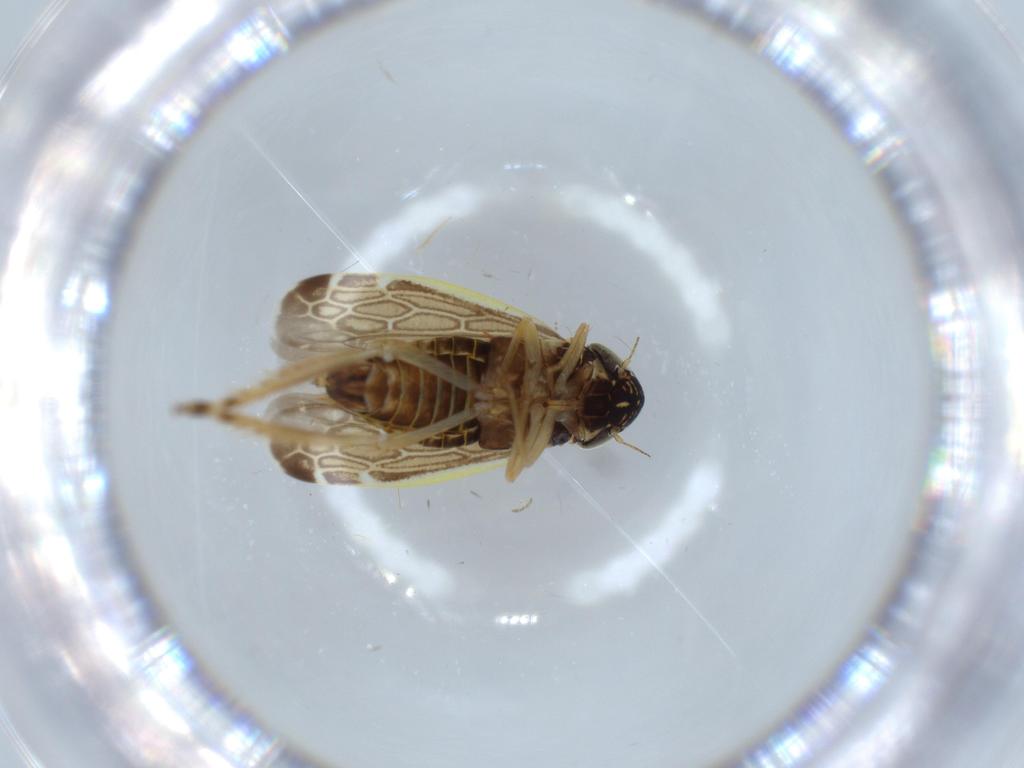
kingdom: Animalia
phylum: Arthropoda
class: Insecta
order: Hemiptera
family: Cicadellidae
